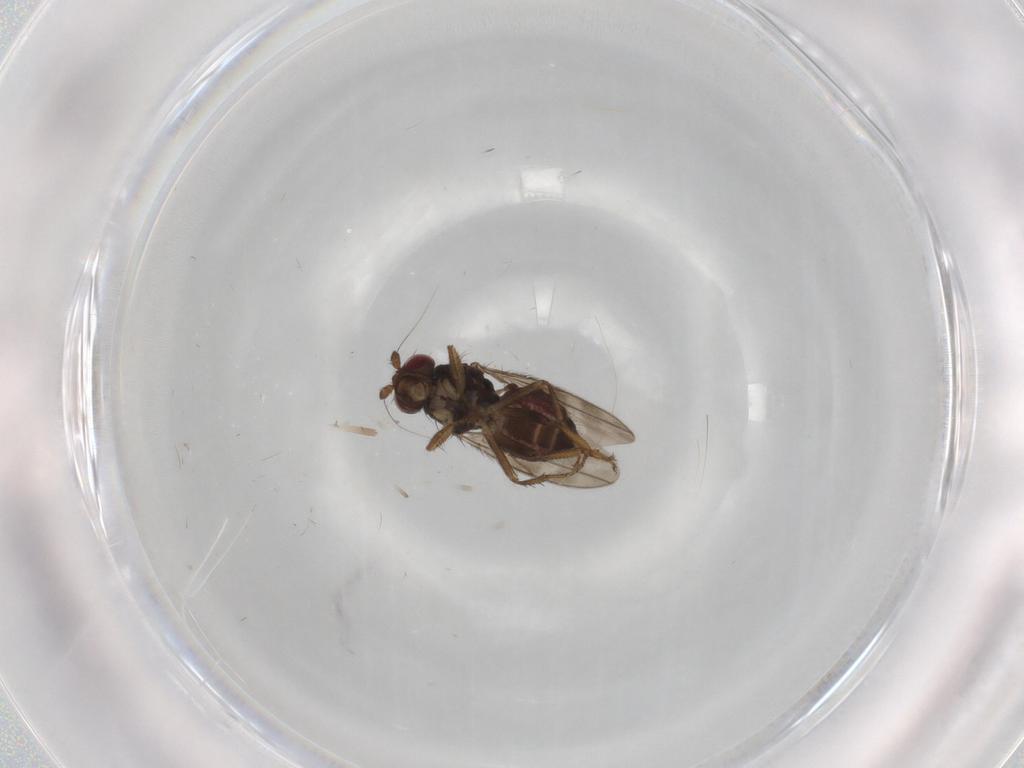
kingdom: Animalia
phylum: Arthropoda
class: Insecta
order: Diptera
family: Sphaeroceridae
